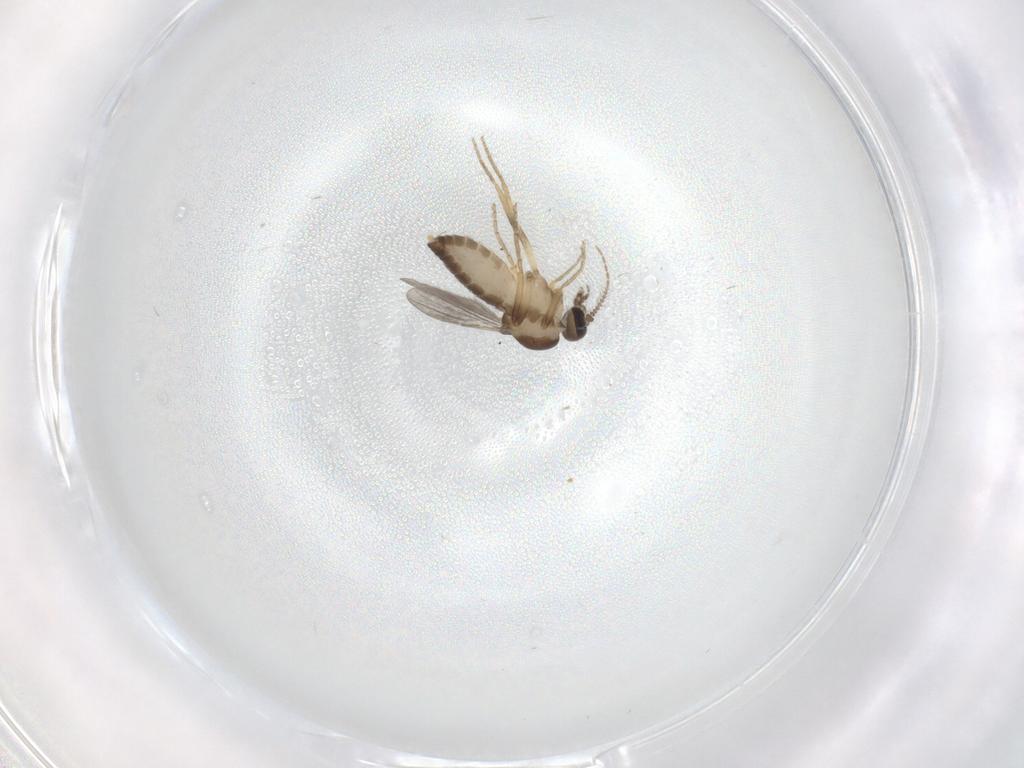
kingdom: Animalia
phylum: Arthropoda
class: Insecta
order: Diptera
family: Ceratopogonidae
